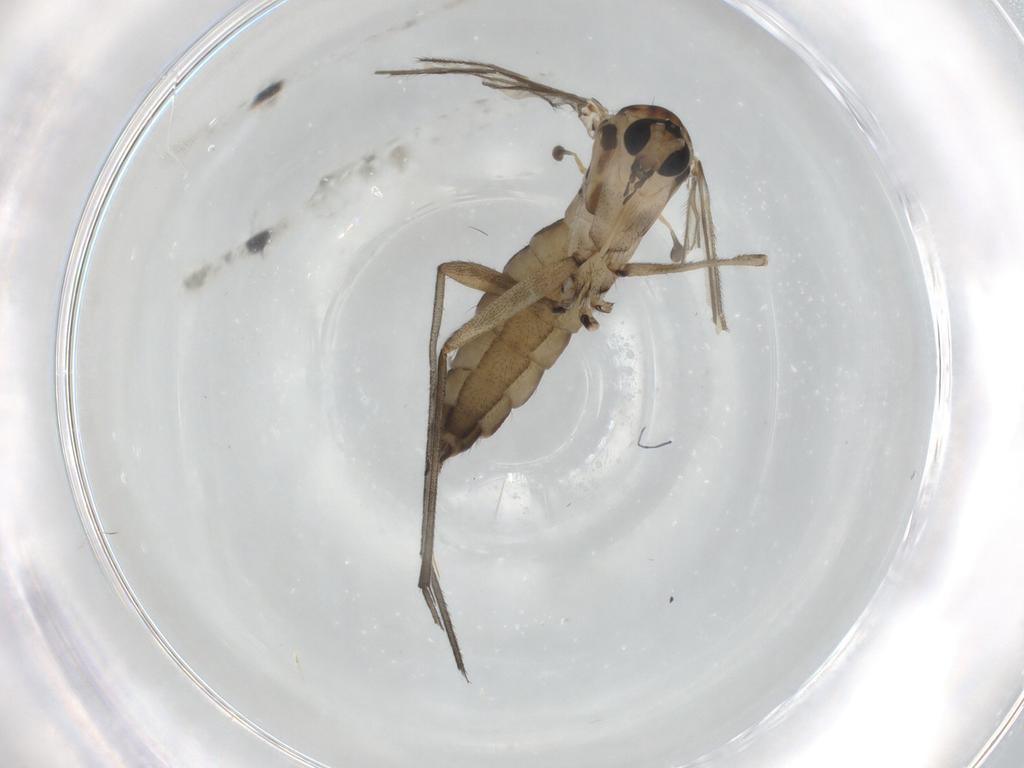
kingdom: Animalia
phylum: Arthropoda
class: Insecta
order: Diptera
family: Sciaridae
